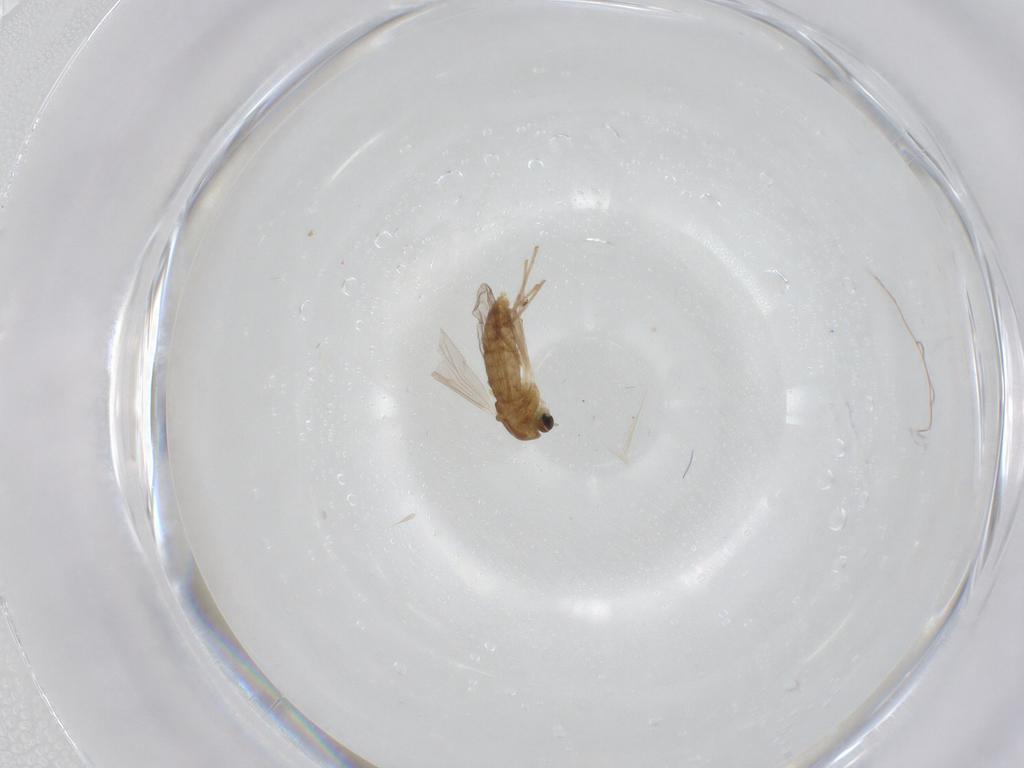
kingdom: Animalia
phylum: Arthropoda
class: Insecta
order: Diptera
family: Chironomidae
